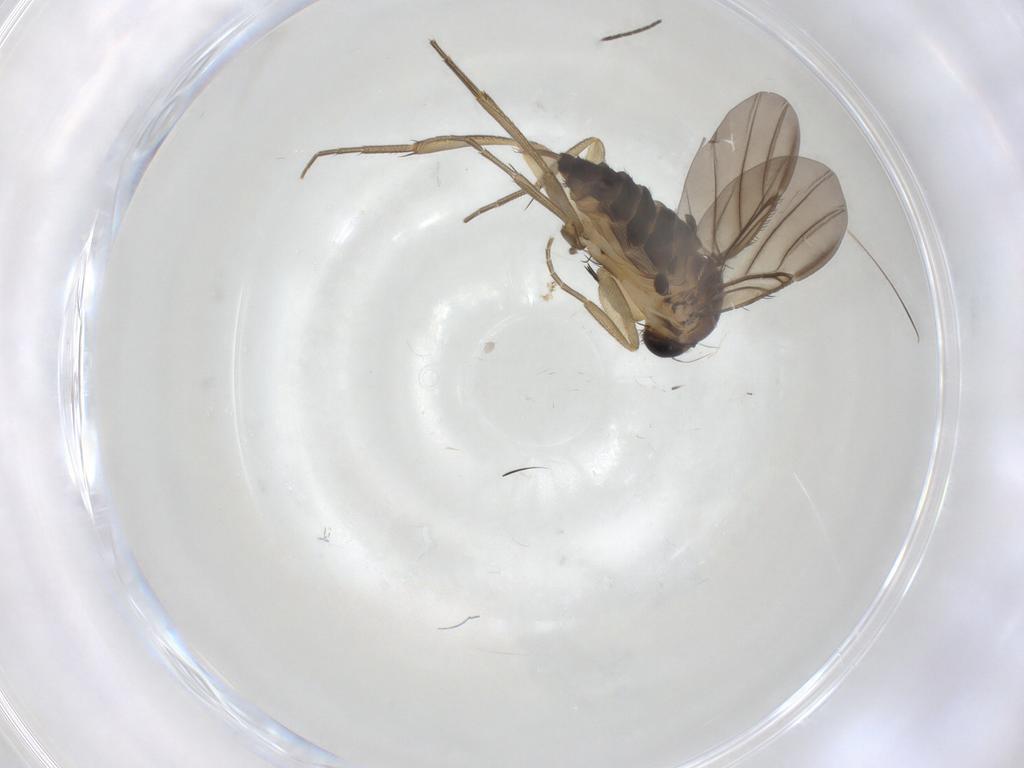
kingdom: Animalia
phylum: Arthropoda
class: Insecta
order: Diptera
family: Phoridae
